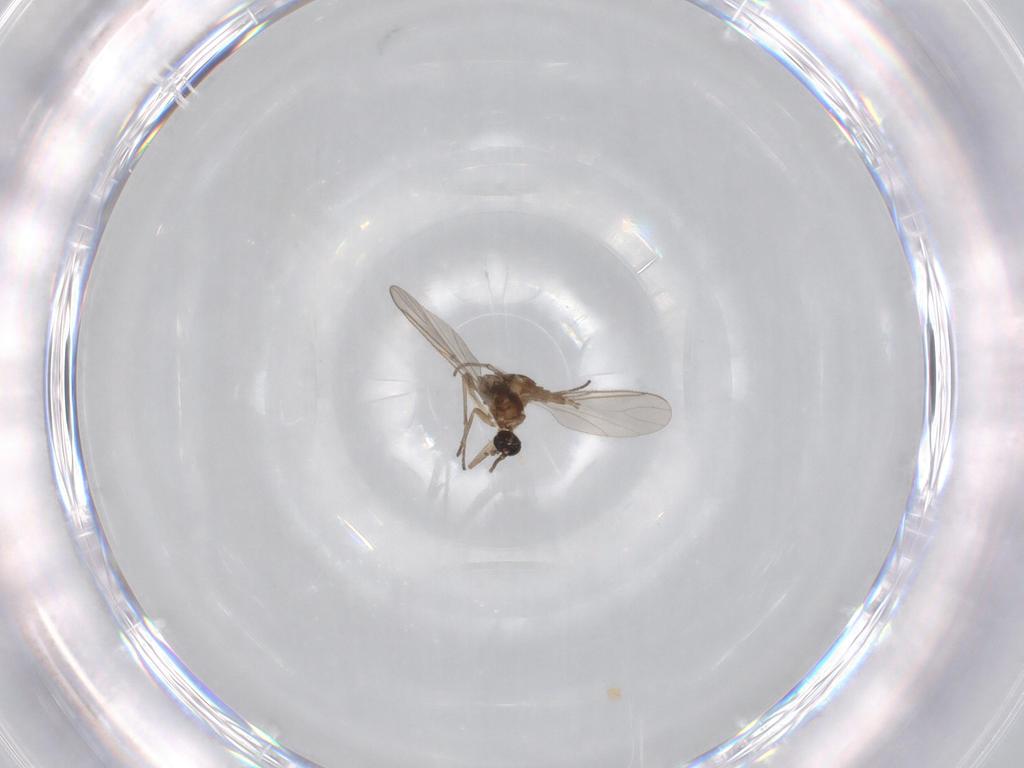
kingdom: Animalia
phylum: Arthropoda
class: Insecta
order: Diptera
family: Sciaridae
